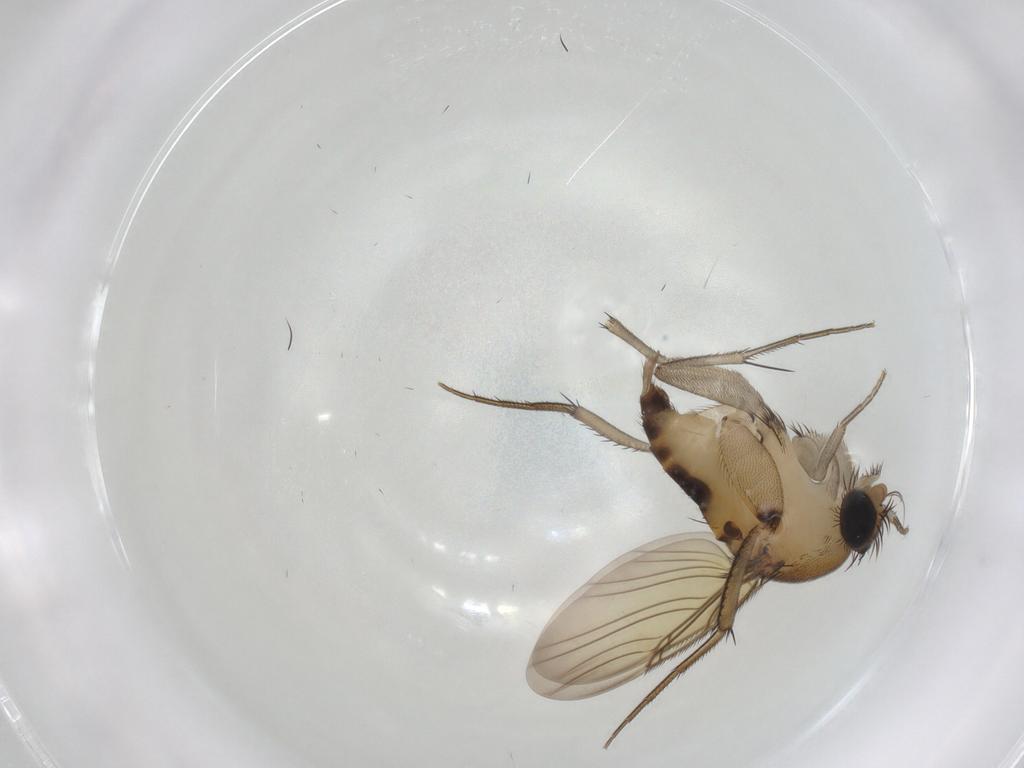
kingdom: Animalia
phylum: Arthropoda
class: Insecta
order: Diptera
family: Phoridae
